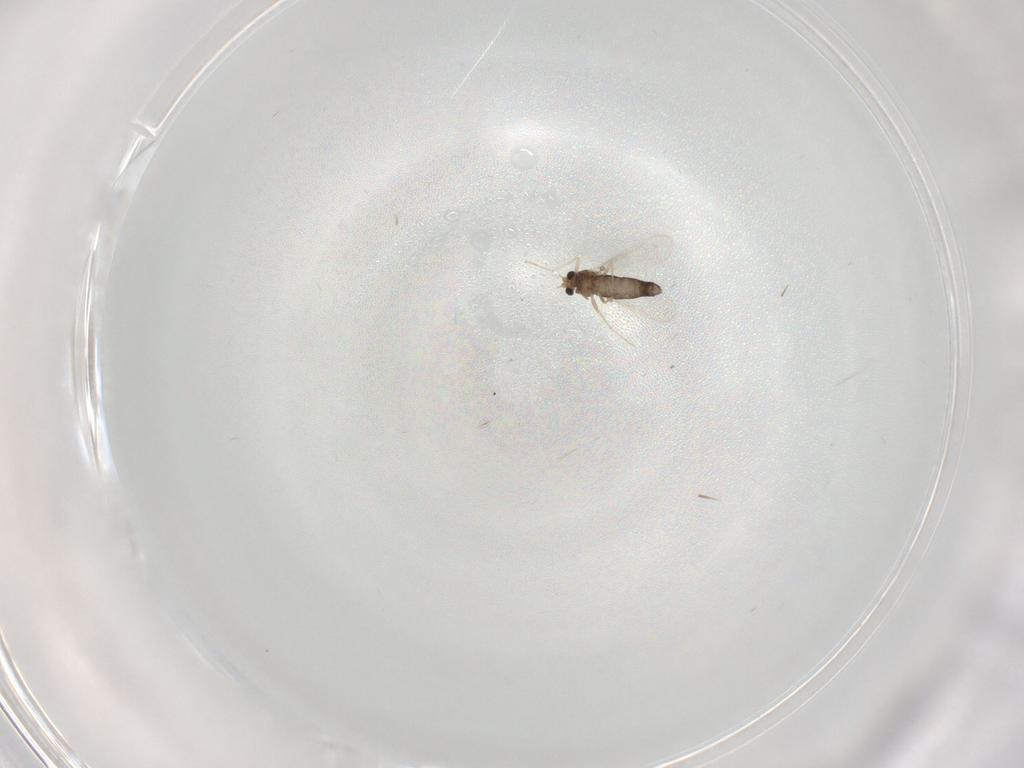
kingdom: Animalia
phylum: Arthropoda
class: Insecta
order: Diptera
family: Chironomidae
